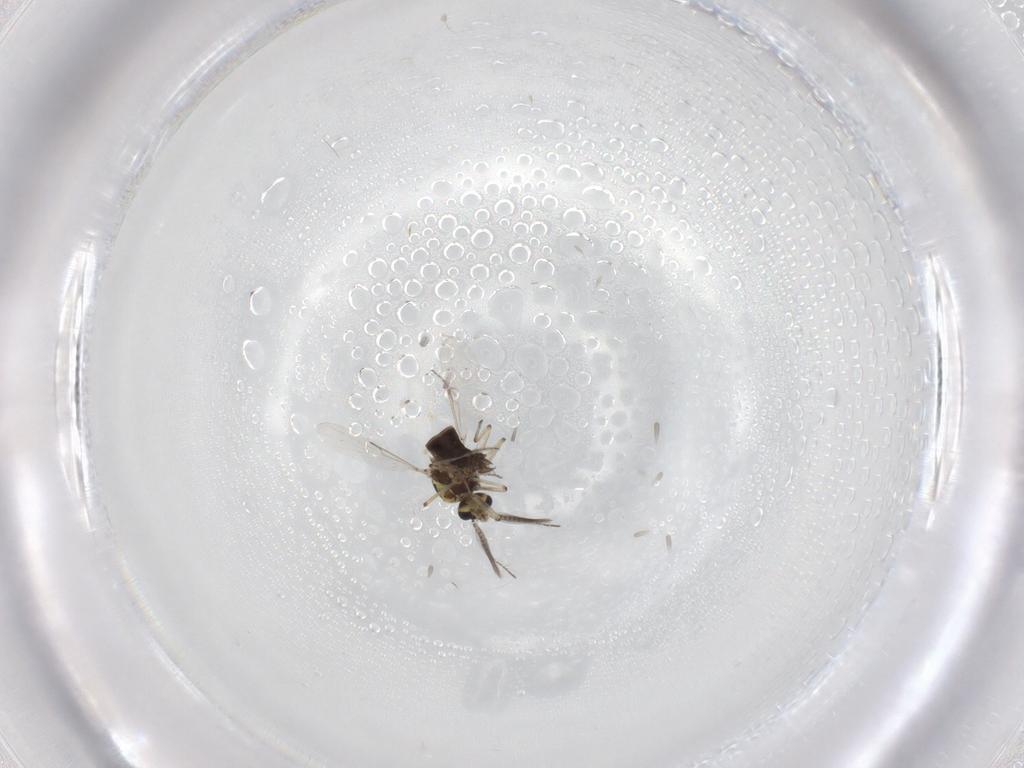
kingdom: Animalia
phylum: Arthropoda
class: Insecta
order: Diptera
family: Ceratopogonidae
